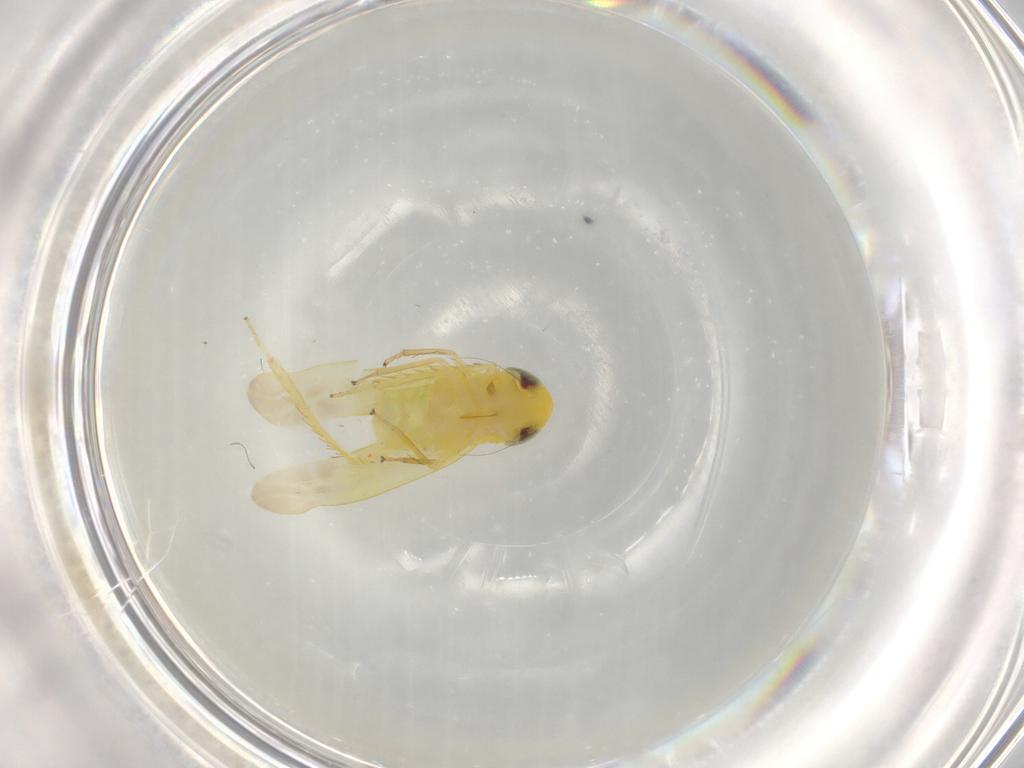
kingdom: Animalia
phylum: Arthropoda
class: Insecta
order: Hemiptera
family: Cicadellidae
